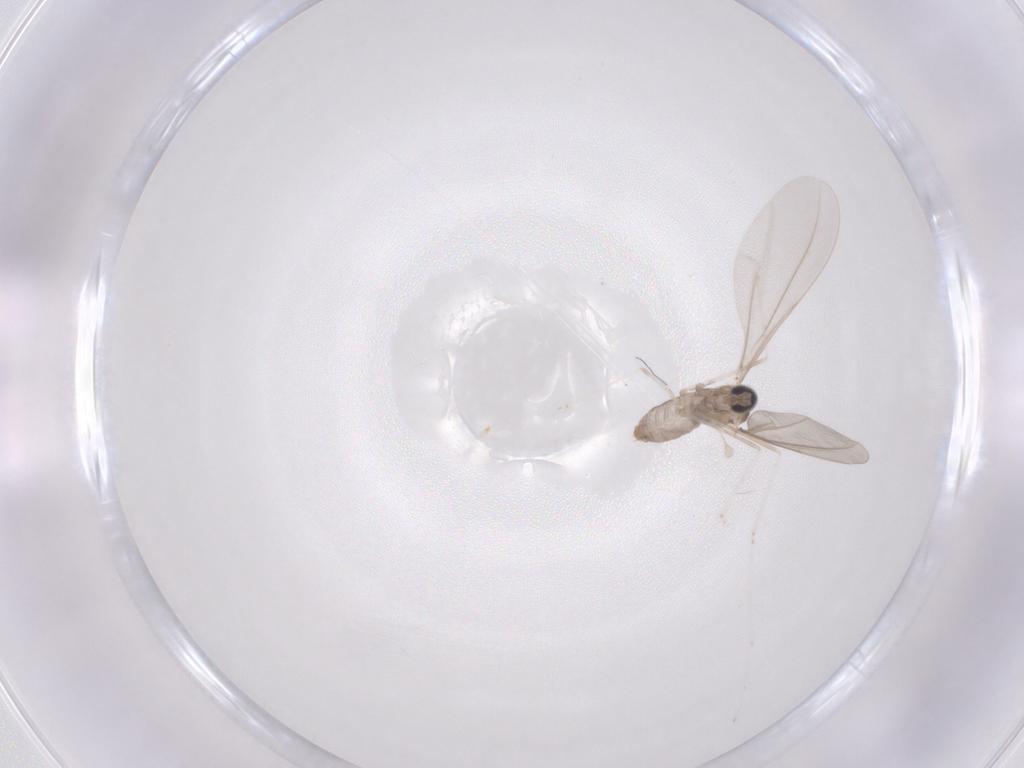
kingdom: Animalia
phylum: Arthropoda
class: Insecta
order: Diptera
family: Cecidomyiidae
